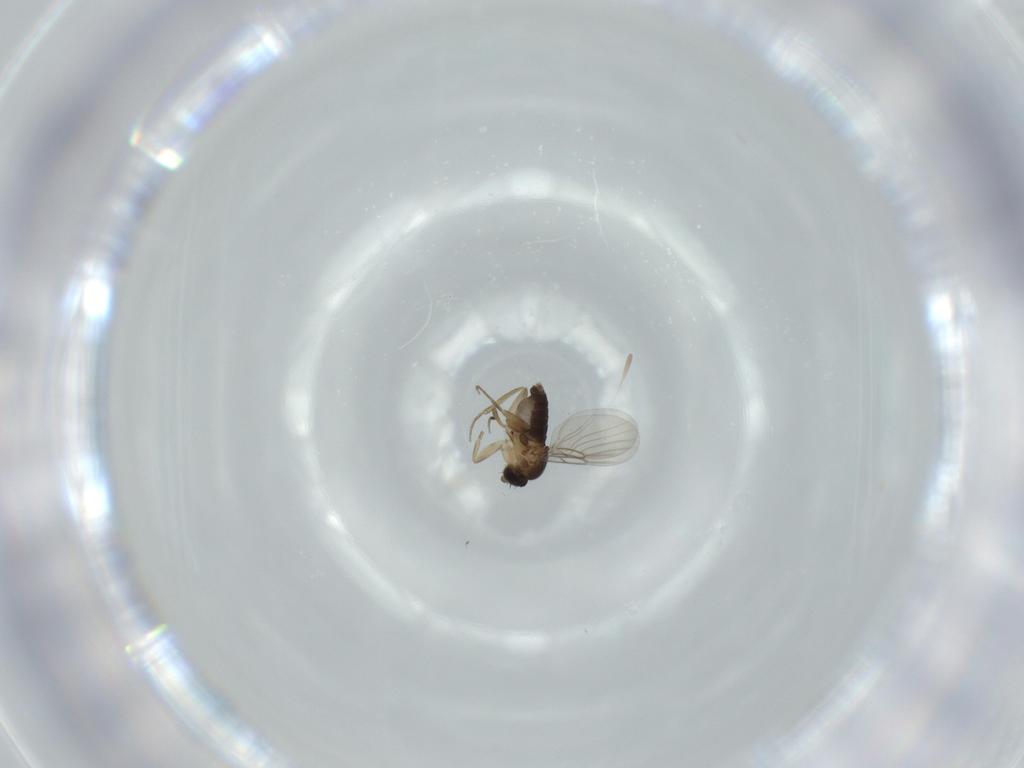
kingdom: Animalia
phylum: Arthropoda
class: Insecta
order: Diptera
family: Phoridae
